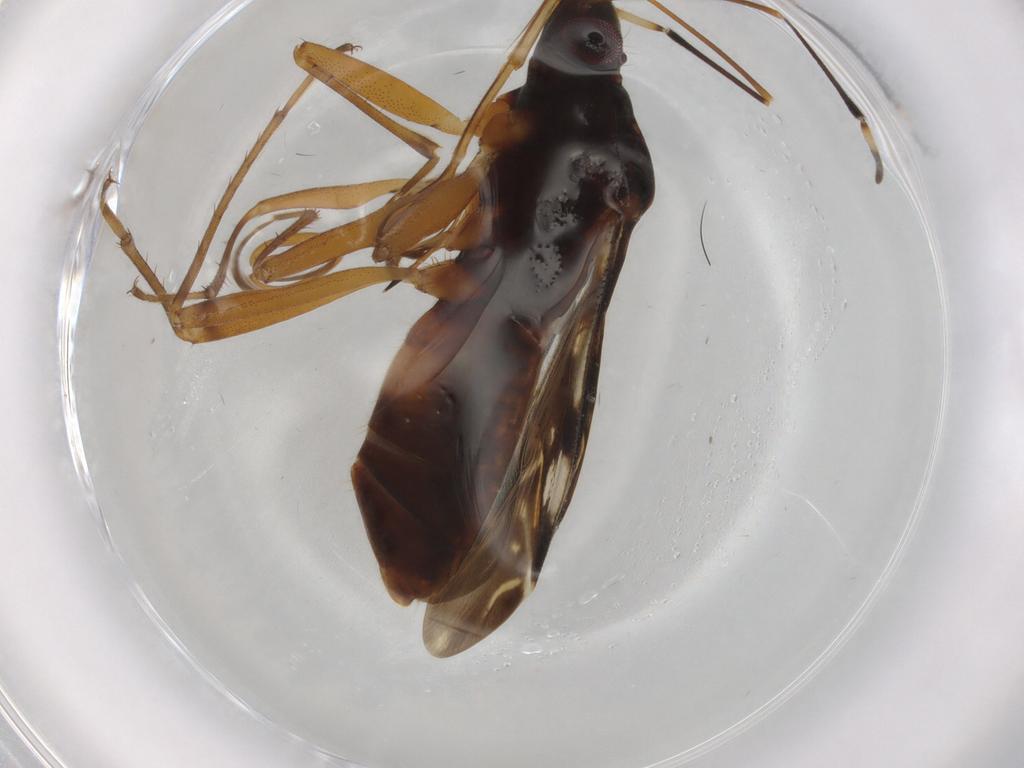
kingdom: Animalia
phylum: Arthropoda
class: Insecta
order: Hemiptera
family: Rhyparochromidae
